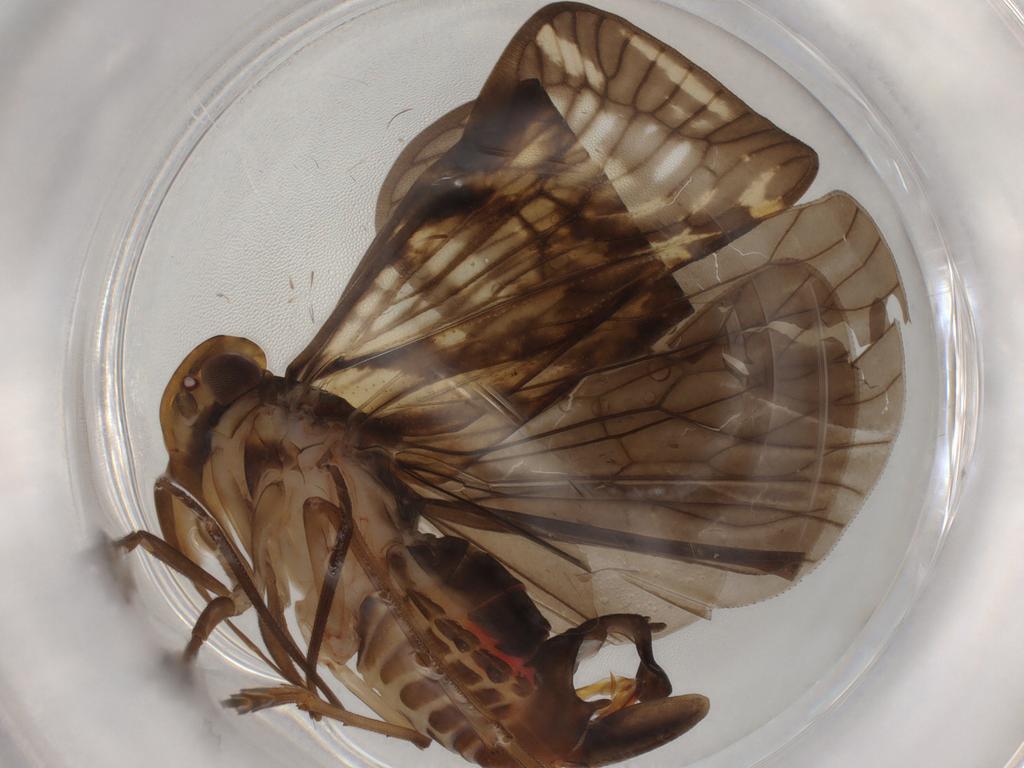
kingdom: Animalia
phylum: Arthropoda
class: Insecta
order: Hemiptera
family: Cixiidae
